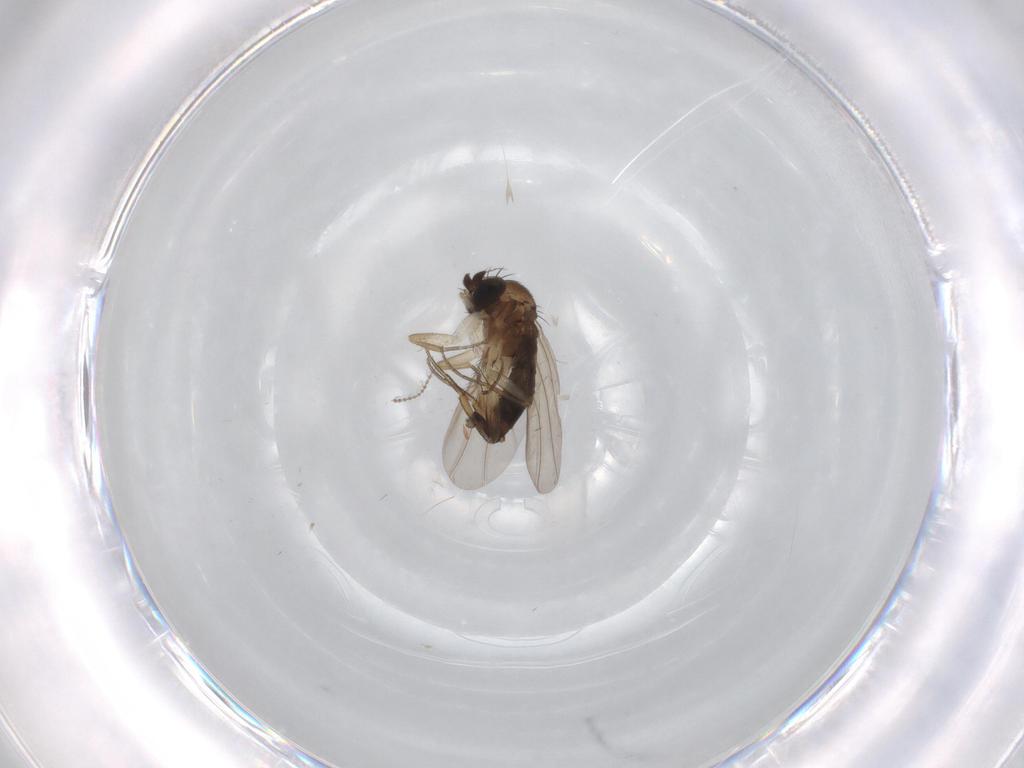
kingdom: Animalia
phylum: Arthropoda
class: Insecta
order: Diptera
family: Phoridae
